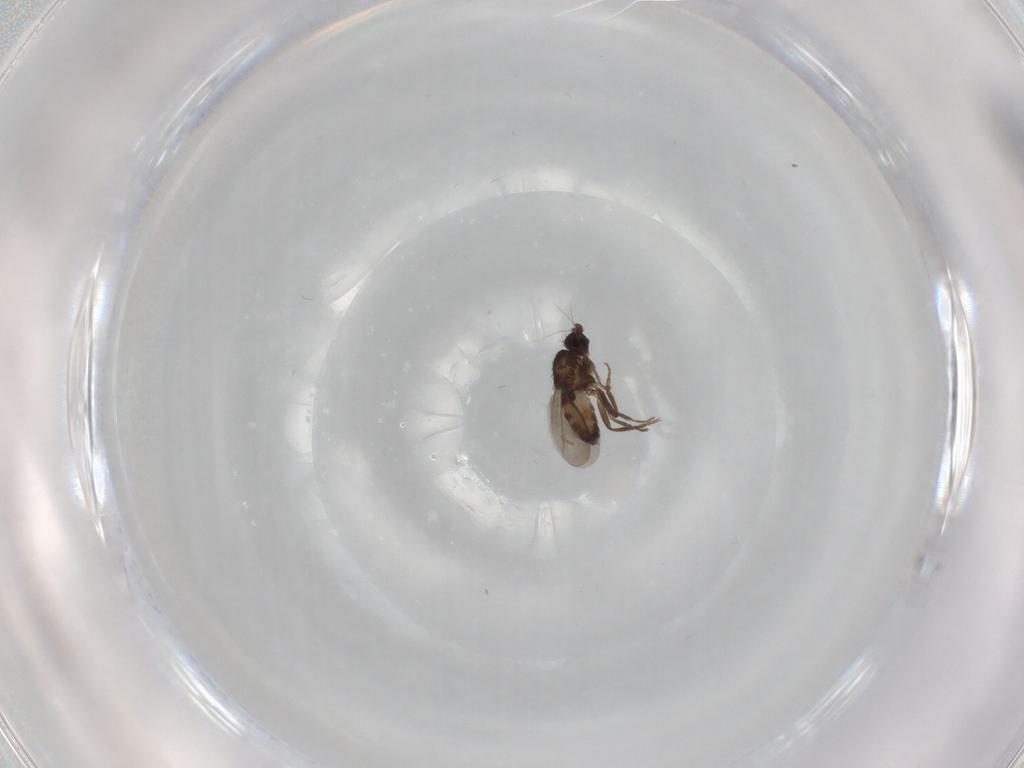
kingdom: Animalia
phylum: Arthropoda
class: Insecta
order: Diptera
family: Sphaeroceridae
